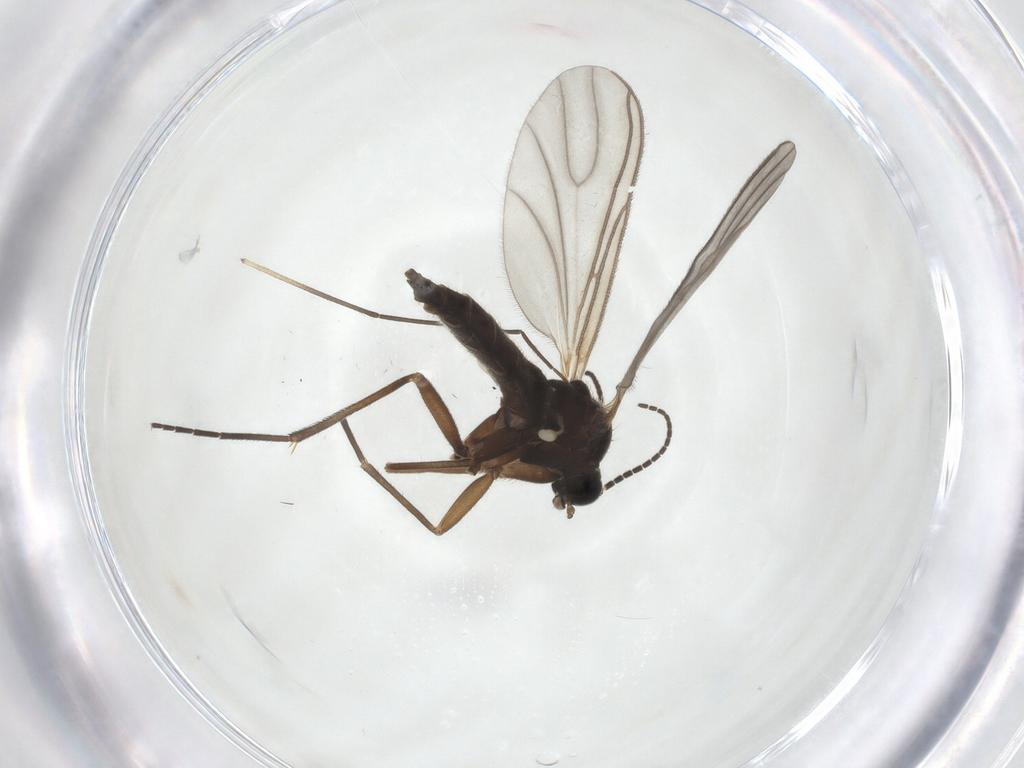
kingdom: Animalia
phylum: Arthropoda
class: Insecta
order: Diptera
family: Sciaridae
